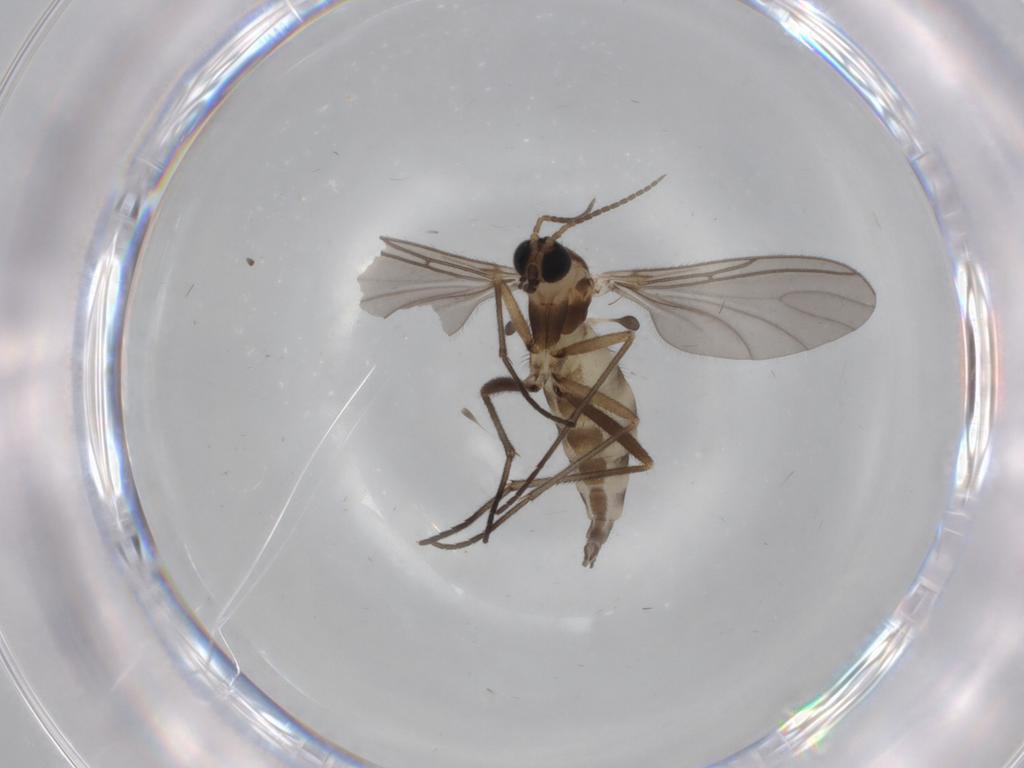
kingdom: Animalia
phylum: Arthropoda
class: Insecta
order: Diptera
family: Sciaridae
